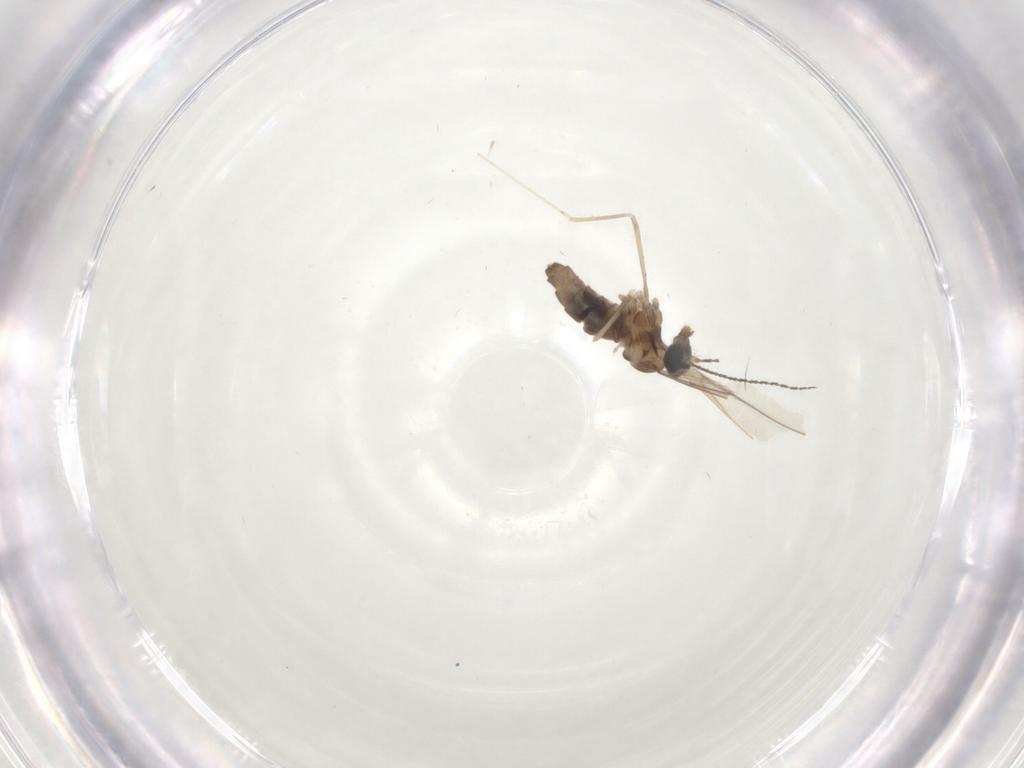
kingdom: Animalia
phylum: Arthropoda
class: Insecta
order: Diptera
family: Cecidomyiidae
